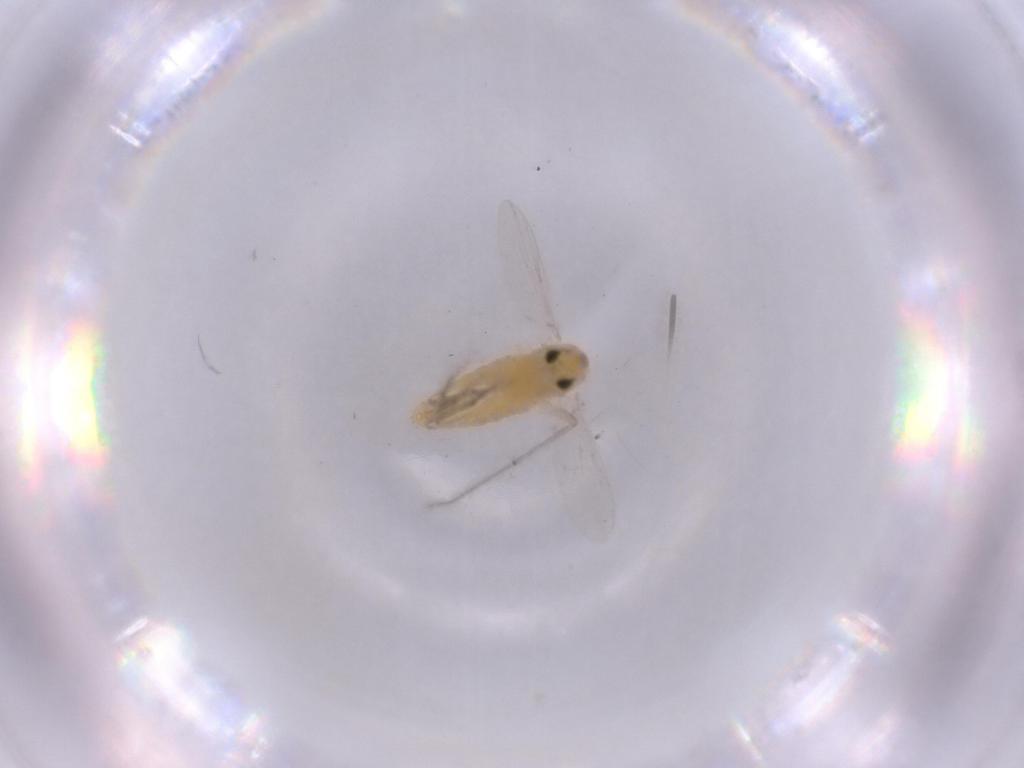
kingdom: Animalia
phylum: Arthropoda
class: Insecta
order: Diptera
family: Chironomidae
